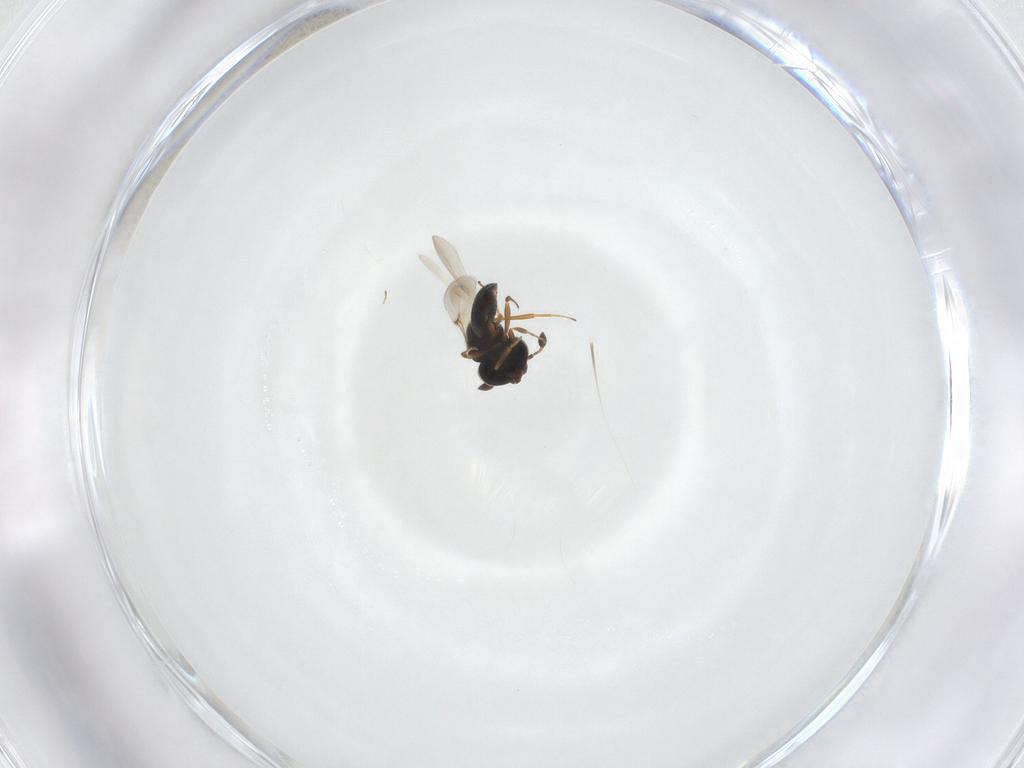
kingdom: Animalia
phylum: Arthropoda
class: Arachnida
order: Araneae
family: Pholcidae
